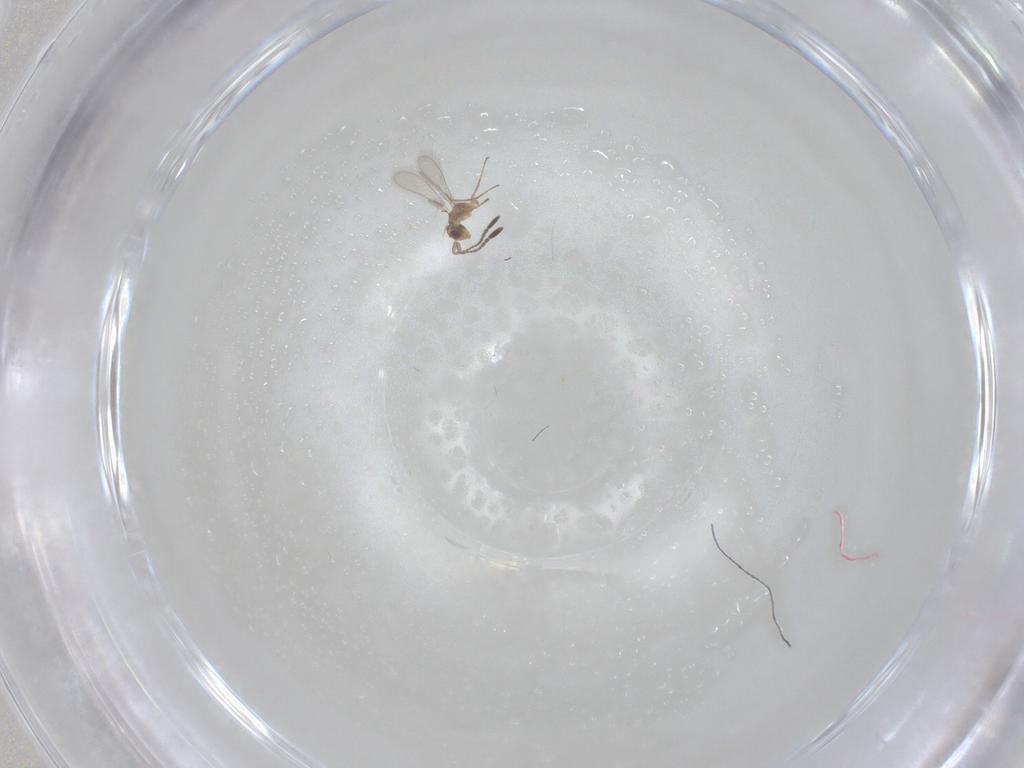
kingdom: Animalia
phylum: Arthropoda
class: Insecta
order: Hymenoptera
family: Mymaridae
